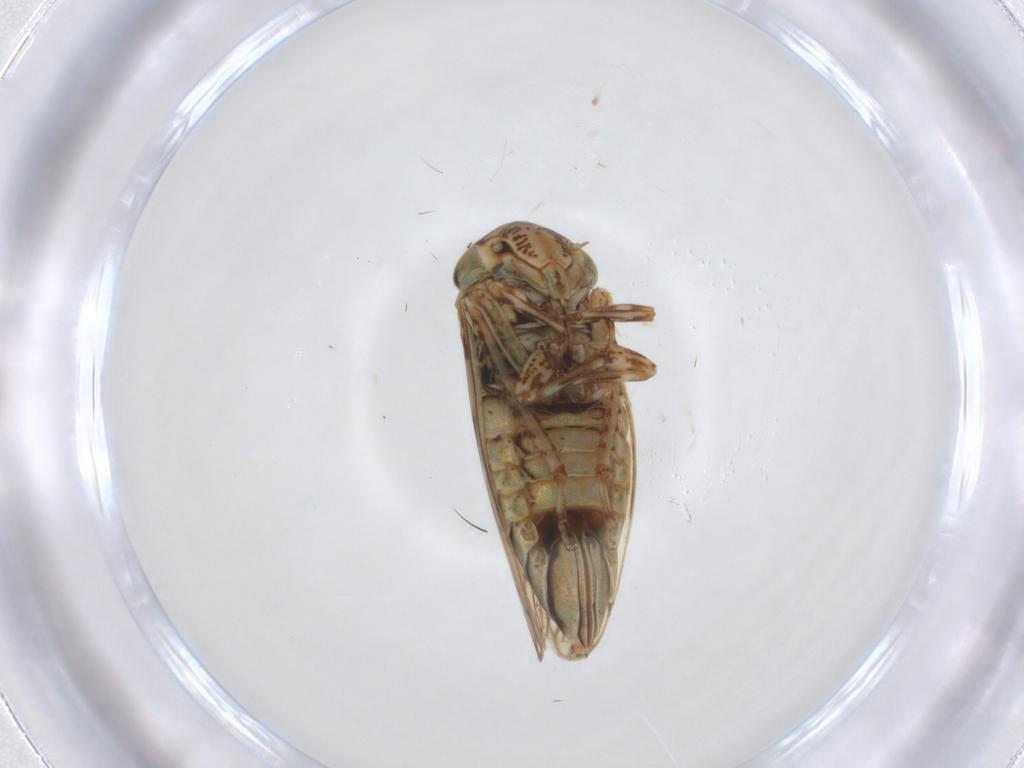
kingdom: Animalia
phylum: Arthropoda
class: Insecta
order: Hemiptera
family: Cicadellidae
